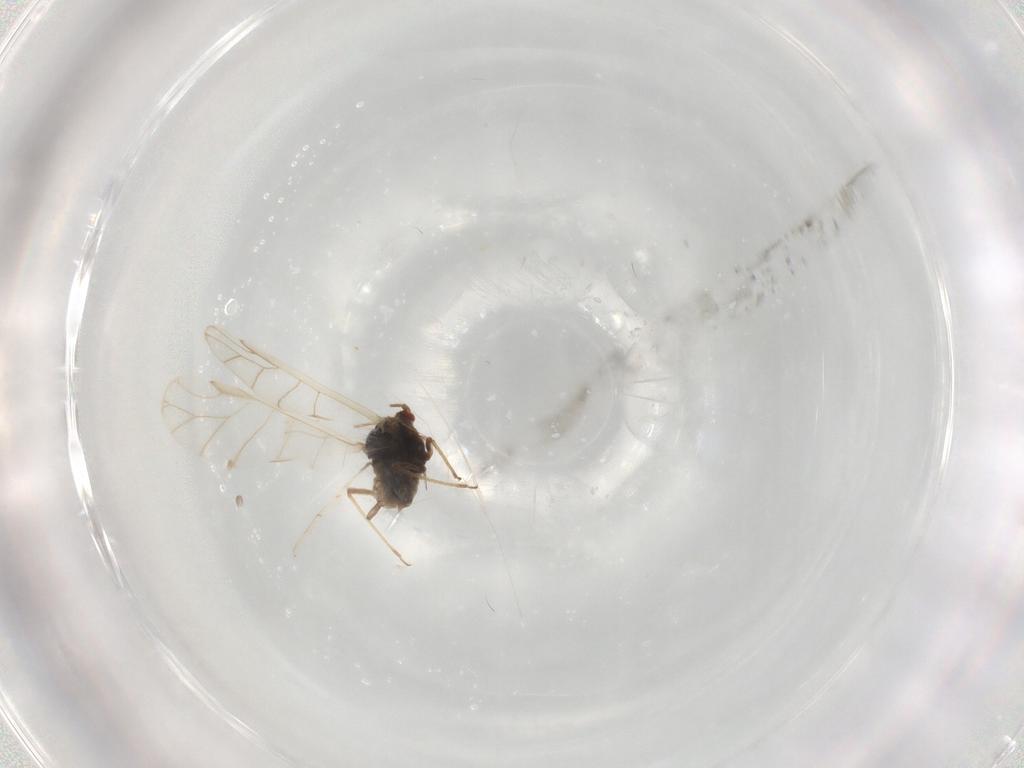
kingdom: Animalia
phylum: Arthropoda
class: Insecta
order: Hemiptera
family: Aphididae
